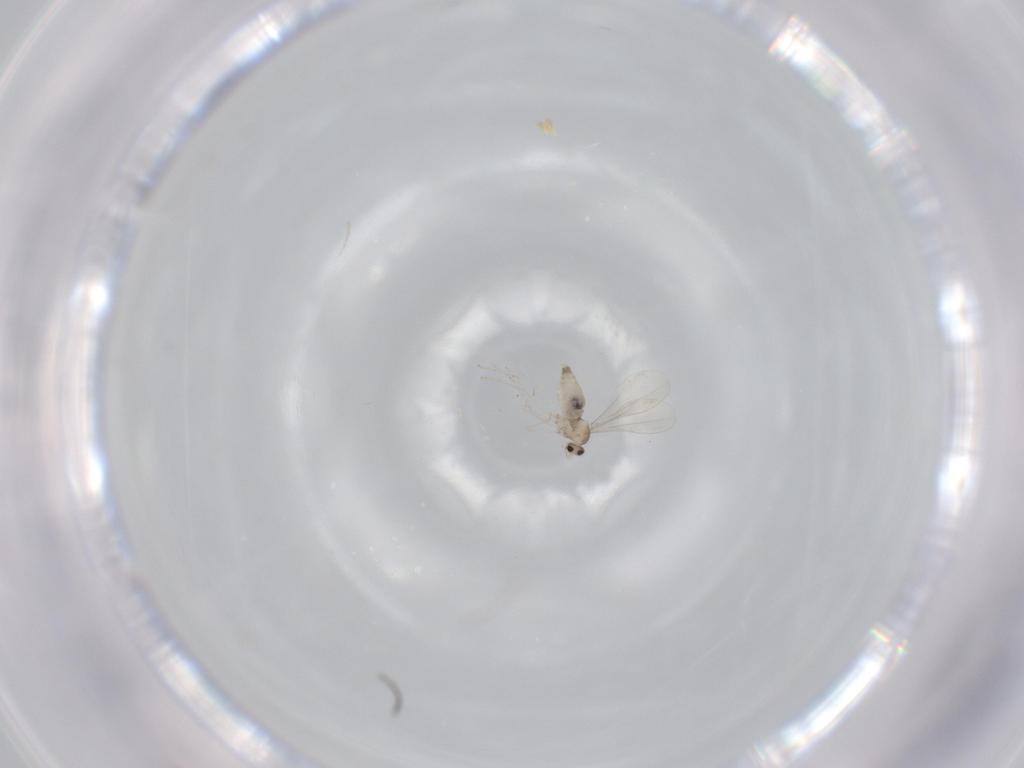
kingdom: Animalia
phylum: Arthropoda
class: Insecta
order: Diptera
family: Cecidomyiidae
